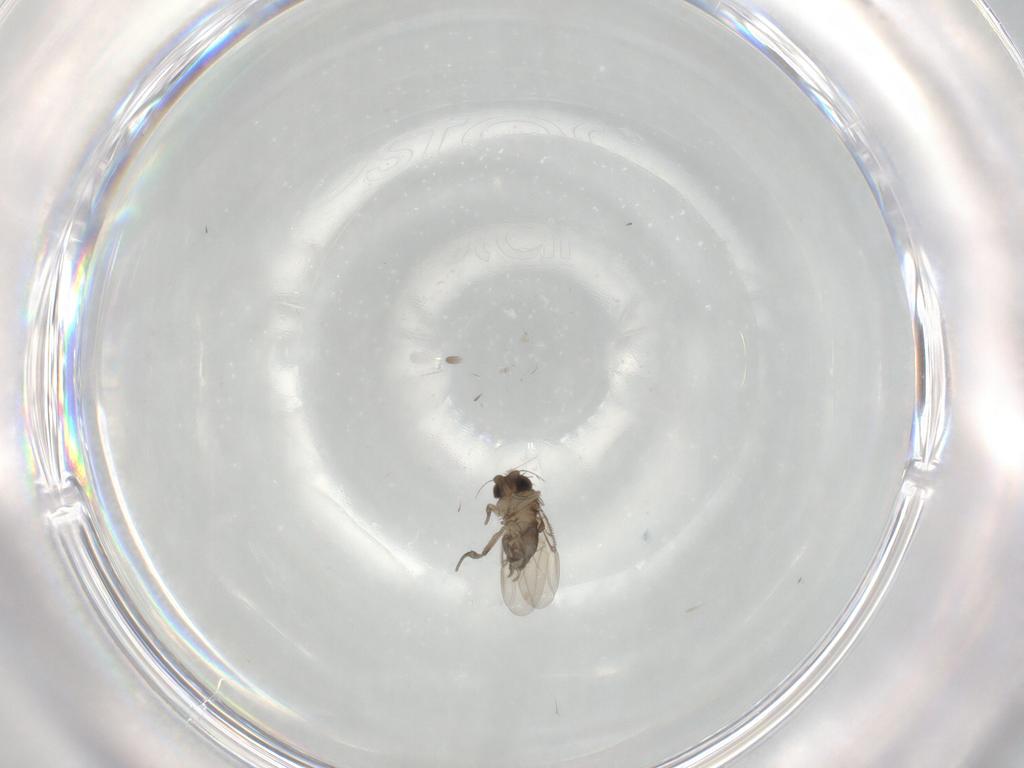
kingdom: Animalia
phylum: Arthropoda
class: Insecta
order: Diptera
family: Phoridae
